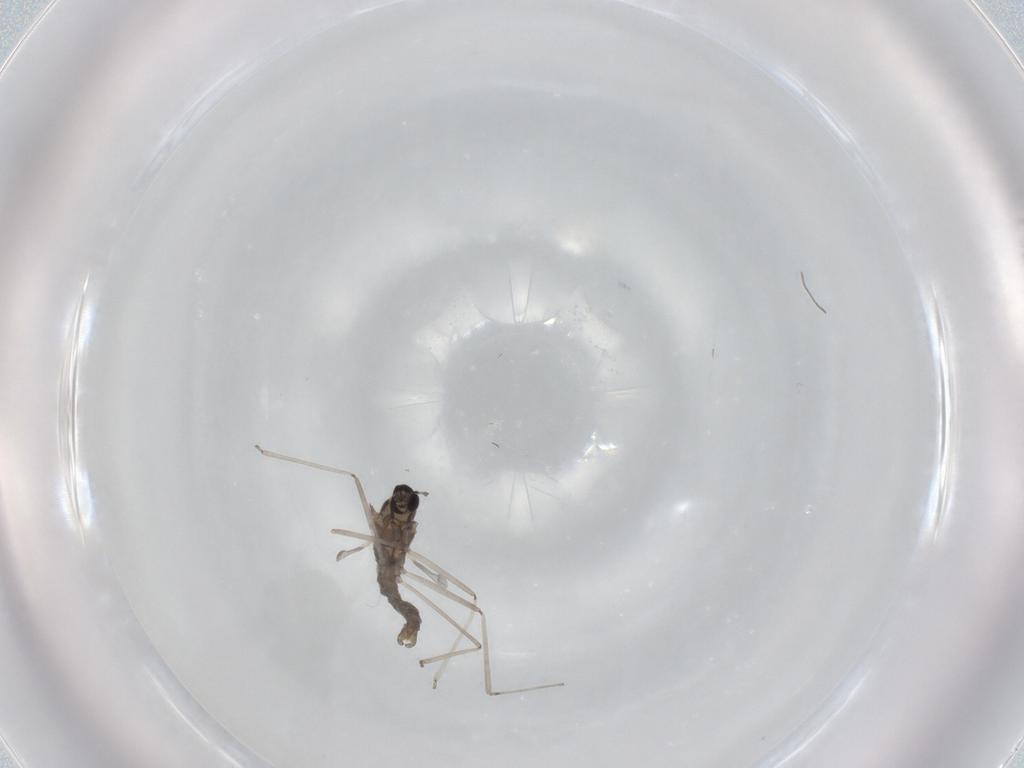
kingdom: Animalia
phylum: Arthropoda
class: Insecta
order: Diptera
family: Cecidomyiidae
